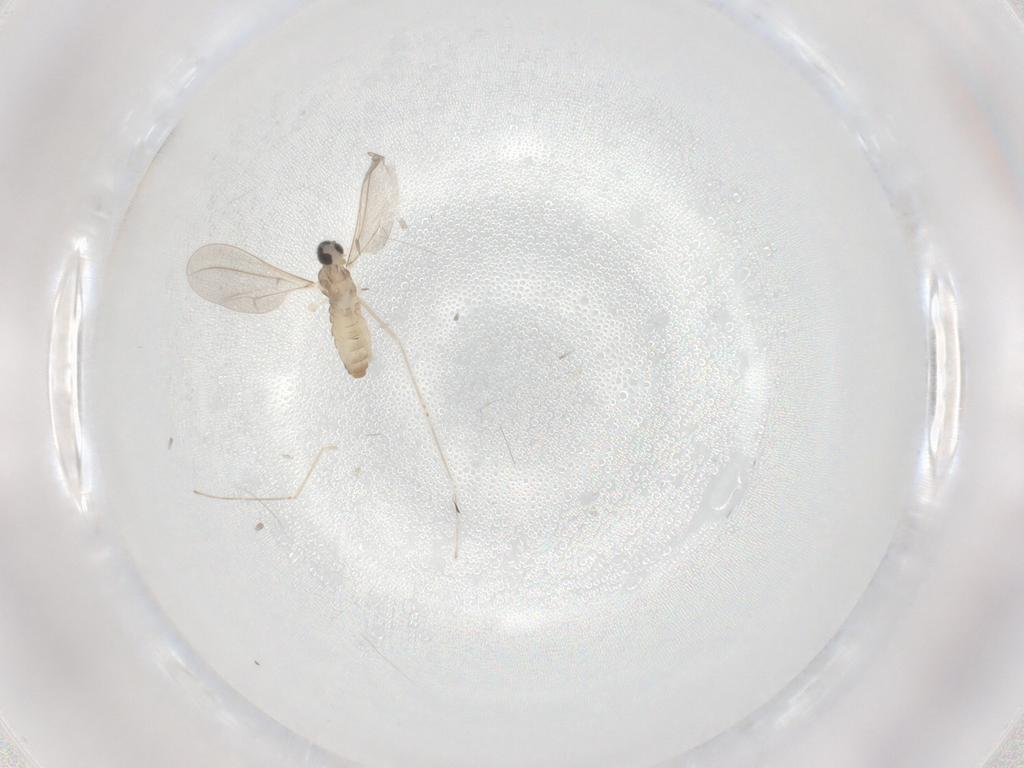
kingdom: Animalia
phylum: Arthropoda
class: Insecta
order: Diptera
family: Cecidomyiidae
